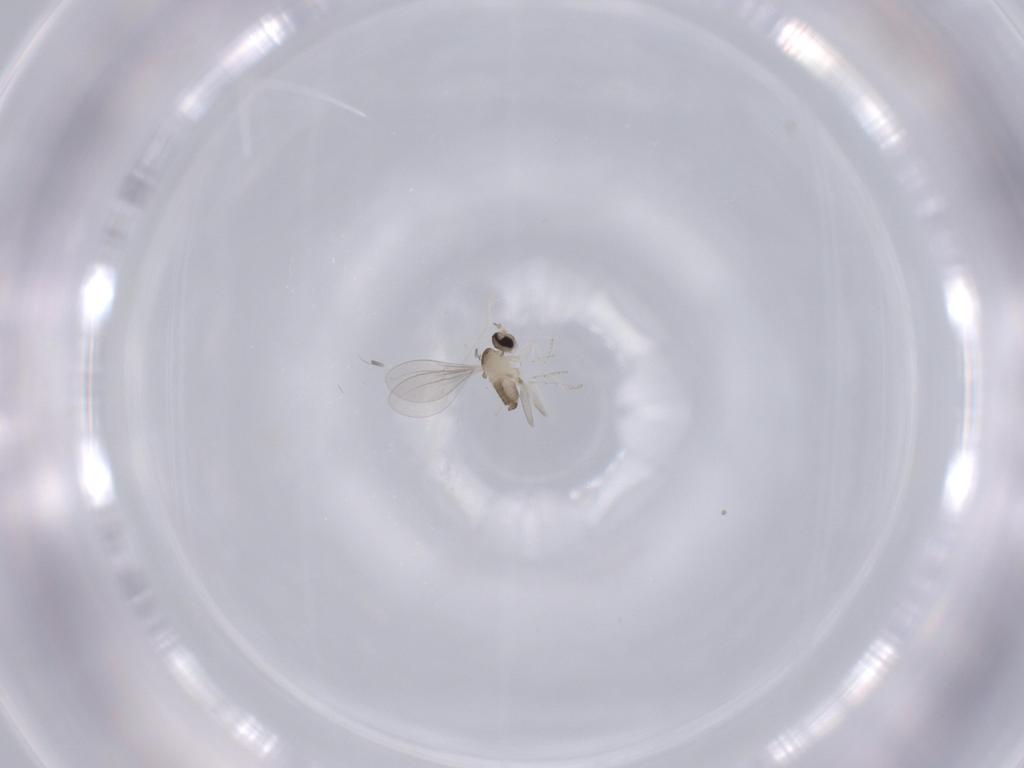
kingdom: Animalia
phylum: Arthropoda
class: Insecta
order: Diptera
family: Cecidomyiidae
